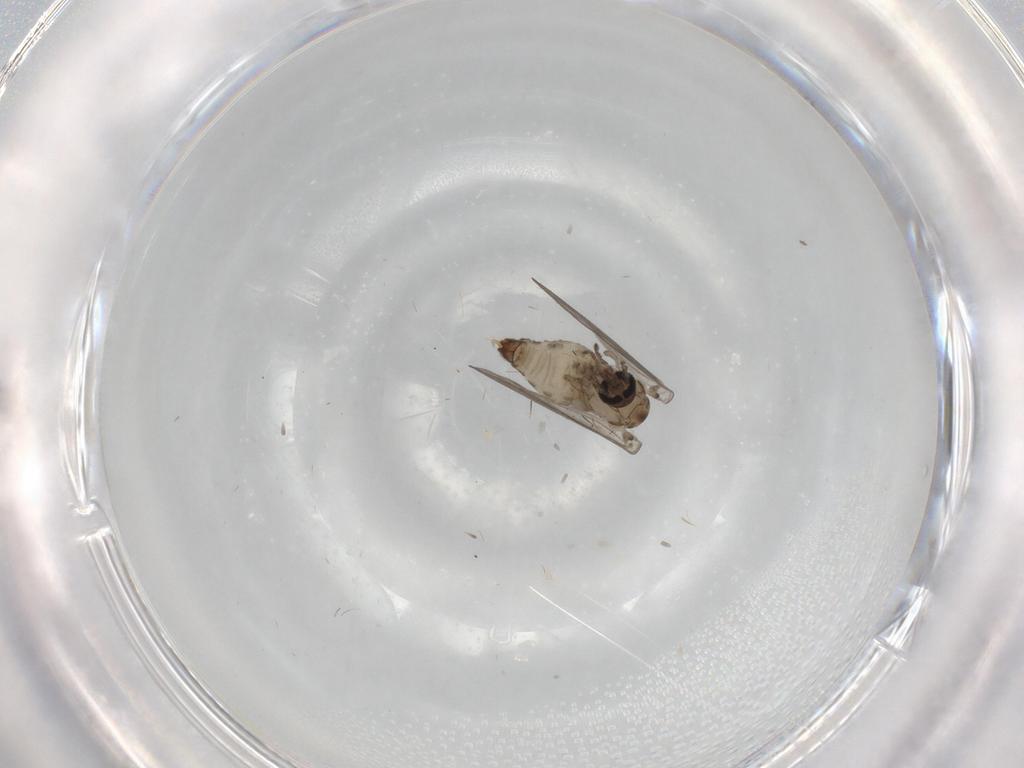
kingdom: Animalia
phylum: Arthropoda
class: Insecta
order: Diptera
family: Psychodidae
